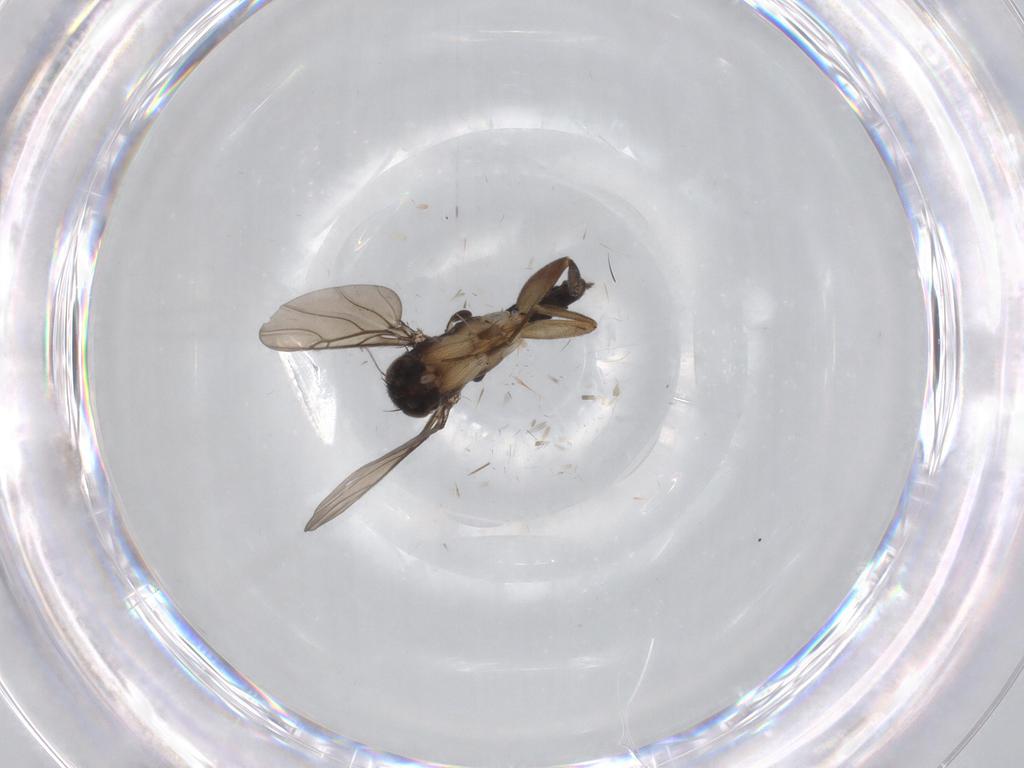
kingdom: Animalia
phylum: Arthropoda
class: Insecta
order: Diptera
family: Phoridae
